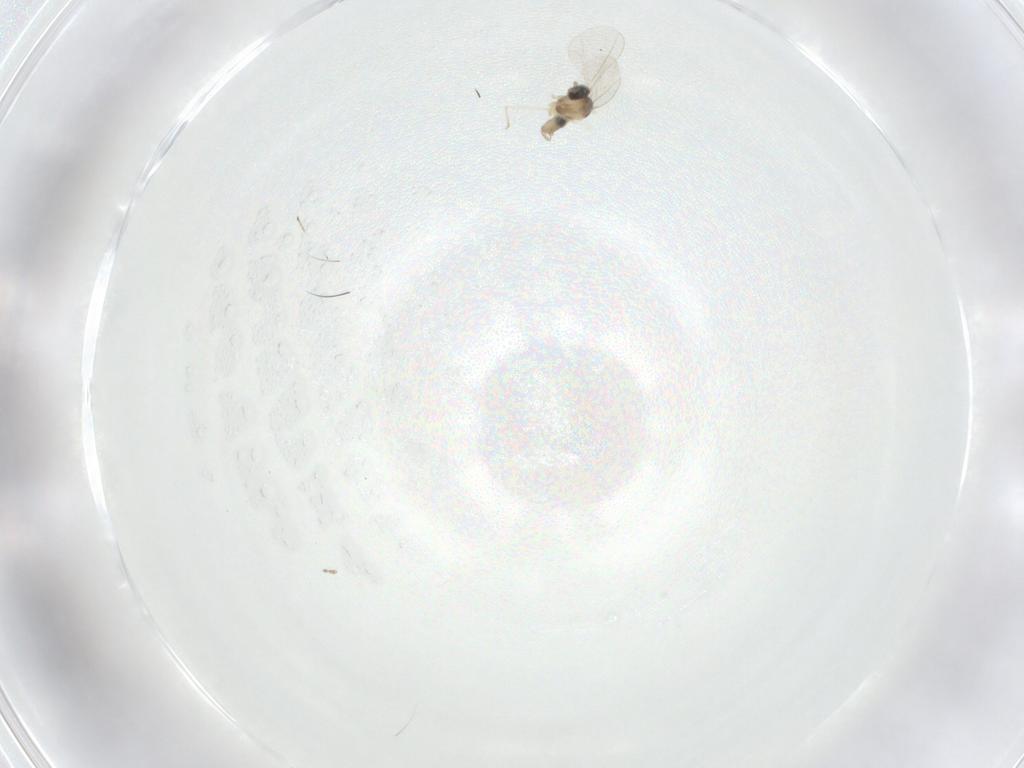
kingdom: Animalia
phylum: Arthropoda
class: Insecta
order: Diptera
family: Cecidomyiidae
